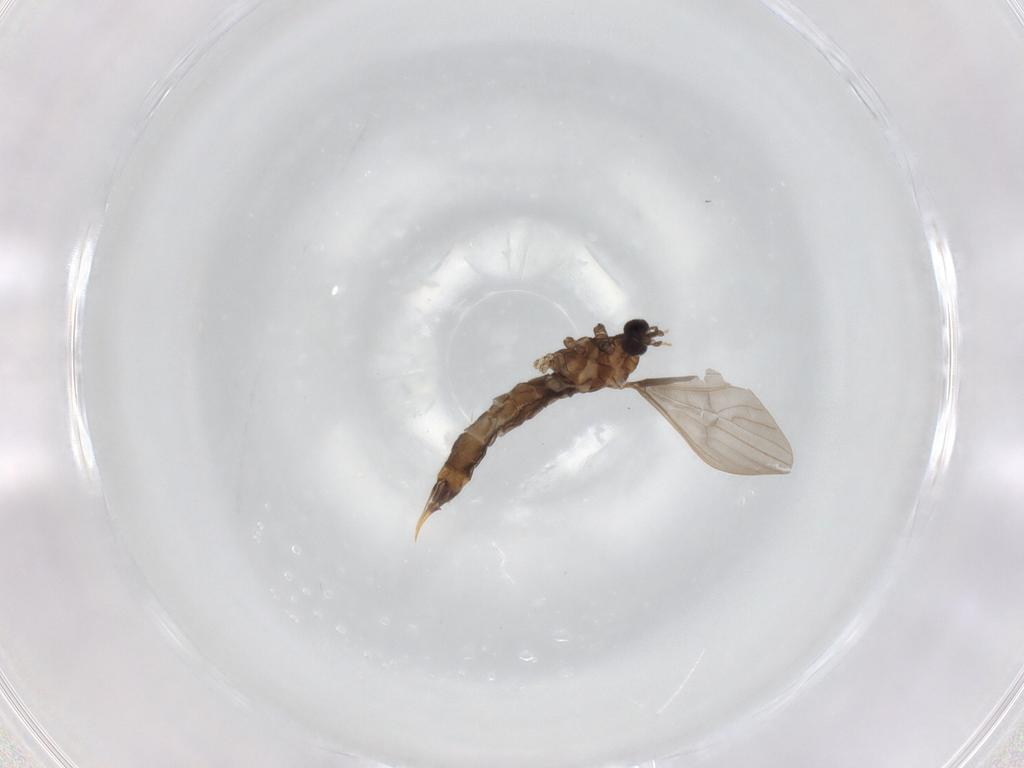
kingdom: Animalia
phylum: Arthropoda
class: Insecta
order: Diptera
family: Limoniidae
